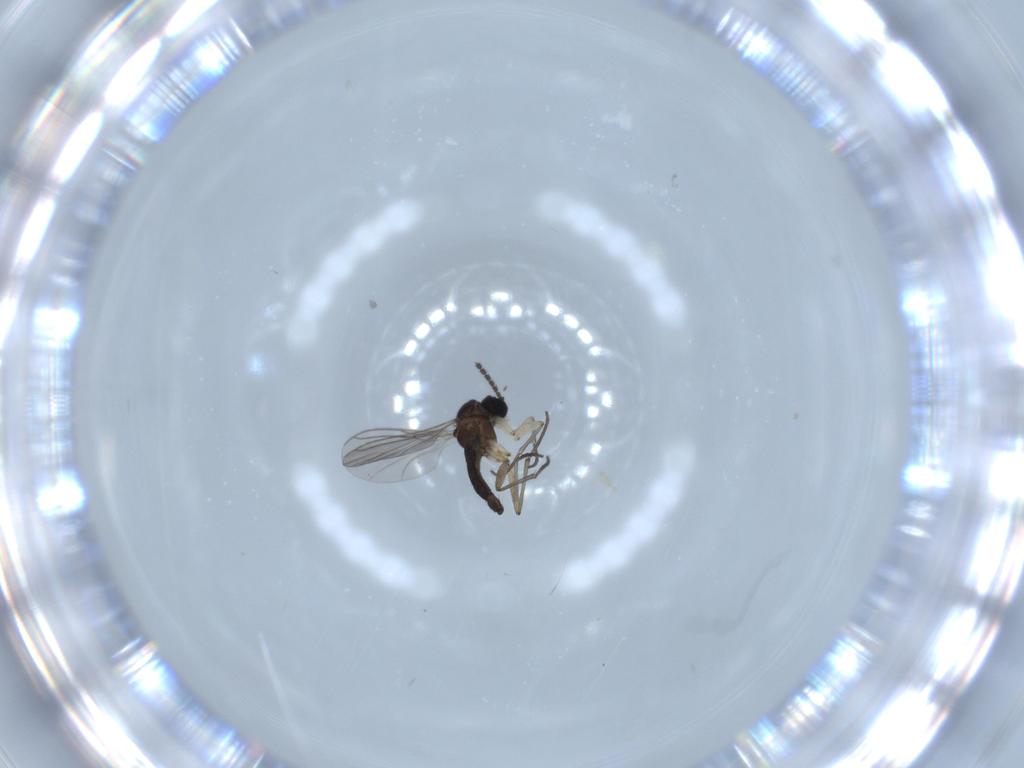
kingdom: Animalia
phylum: Arthropoda
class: Insecta
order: Diptera
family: Sciaridae
